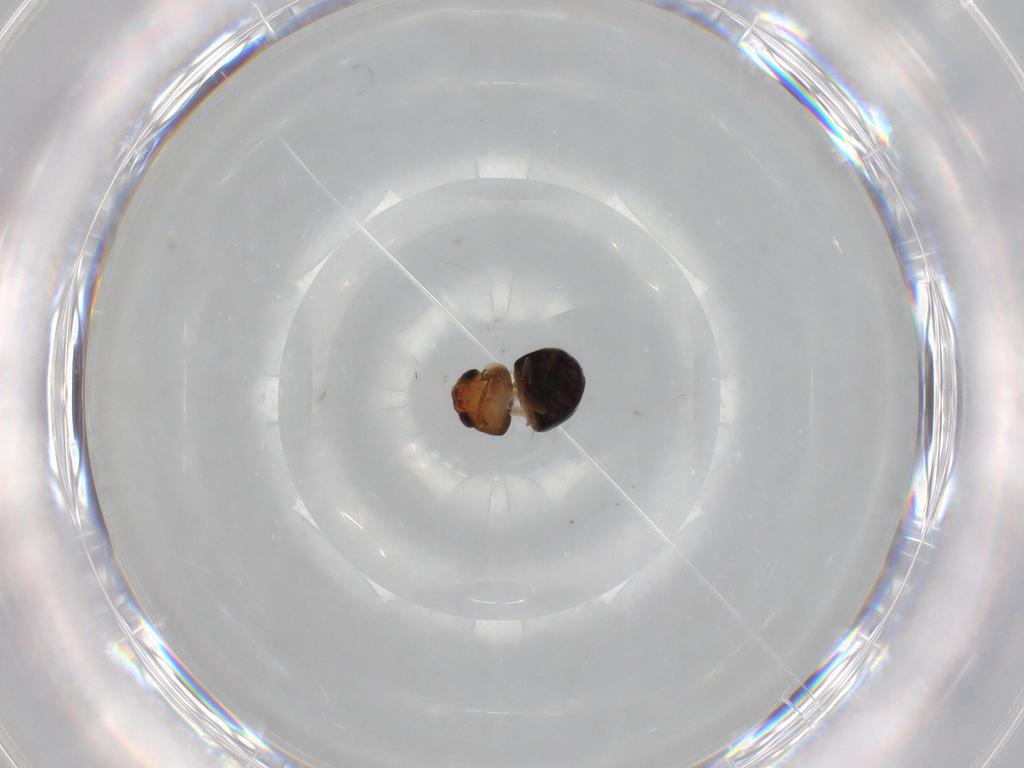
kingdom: Animalia
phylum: Arthropoda
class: Insecta
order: Coleoptera
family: Cybocephalidae
